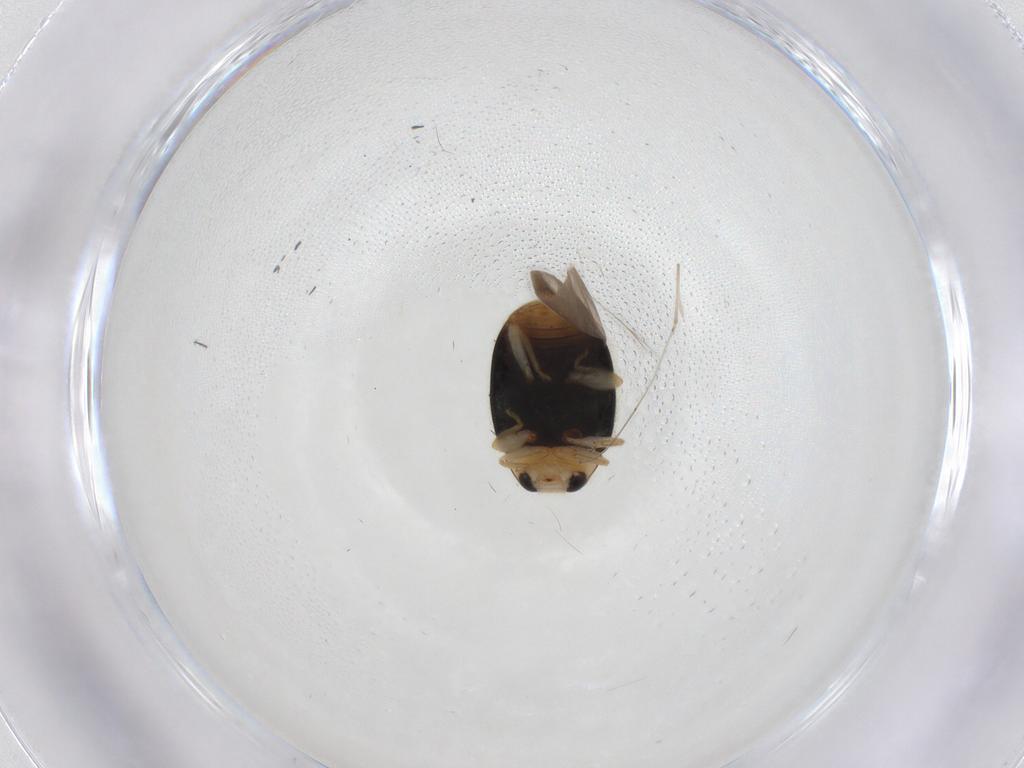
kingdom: Animalia
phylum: Arthropoda
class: Insecta
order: Coleoptera
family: Coccinellidae
